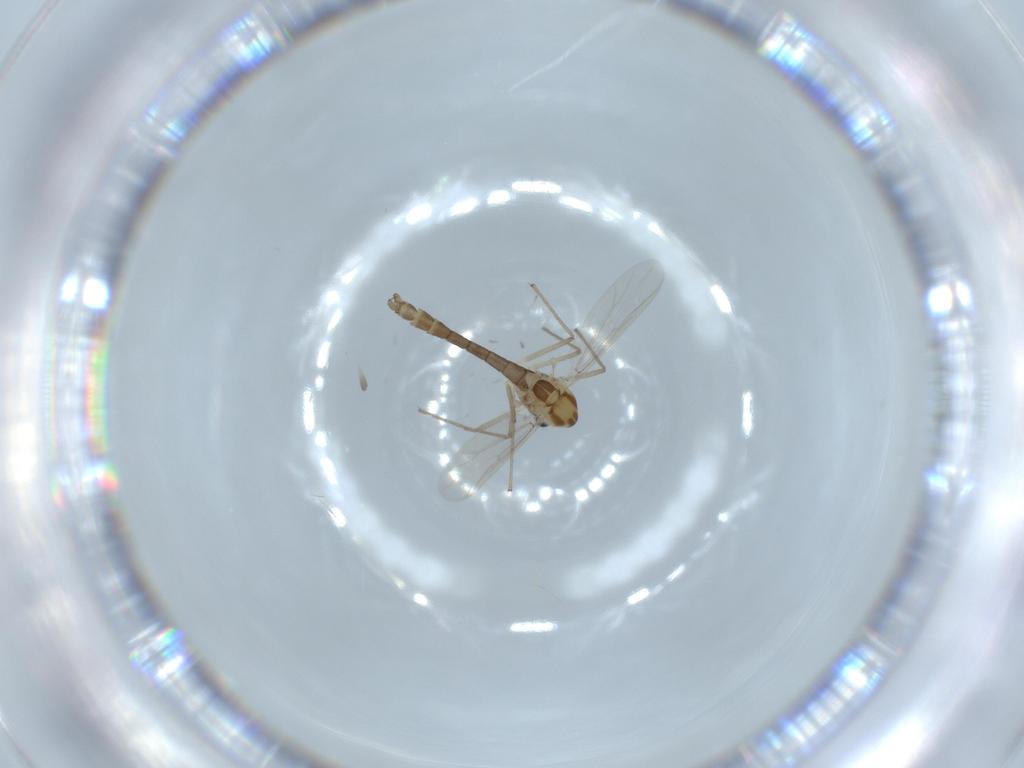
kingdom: Animalia
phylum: Arthropoda
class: Insecta
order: Diptera
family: Chironomidae
